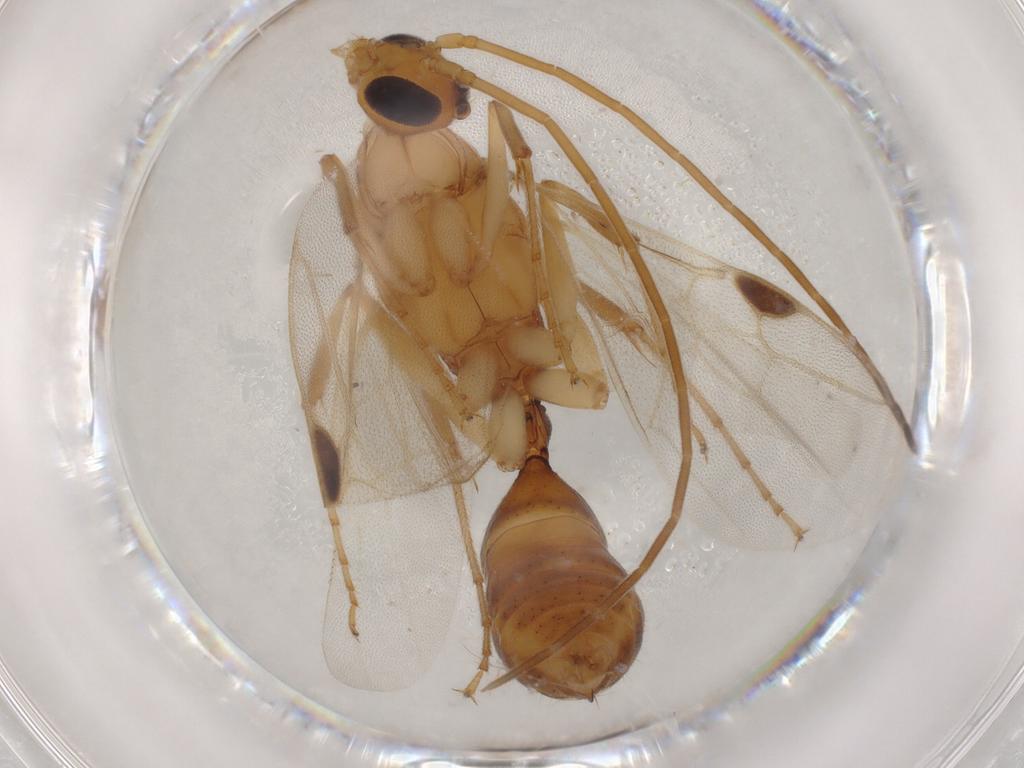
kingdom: Animalia
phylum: Arthropoda
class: Insecta
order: Hymenoptera
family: Formicidae
